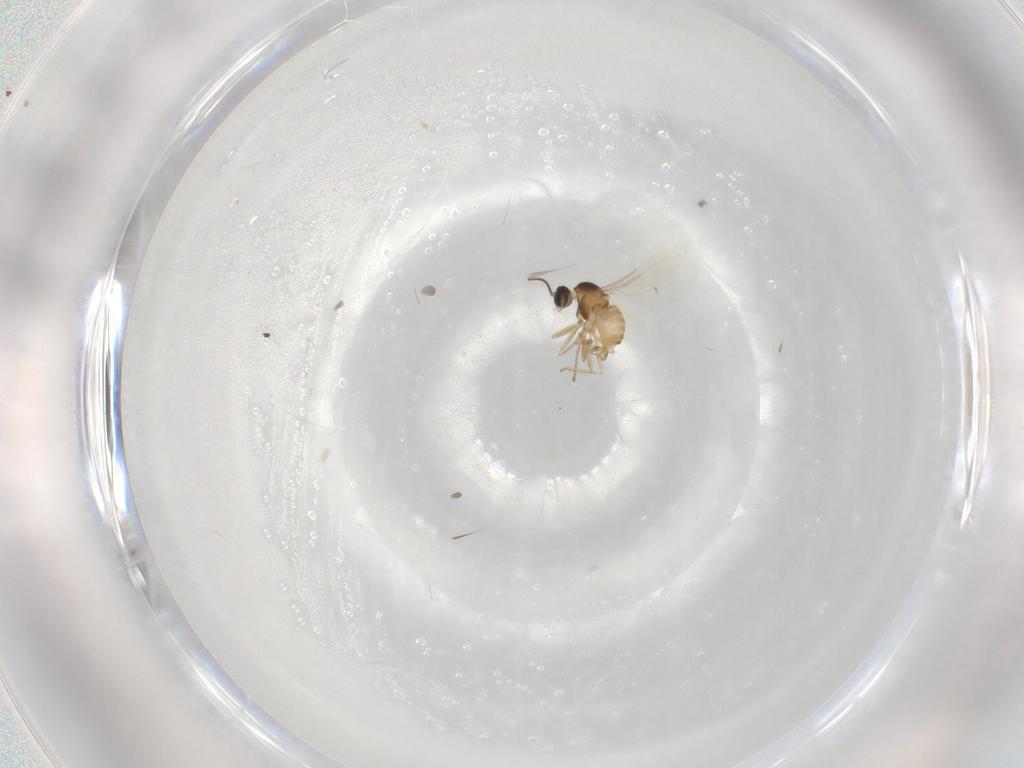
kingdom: Animalia
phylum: Arthropoda
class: Insecta
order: Diptera
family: Cecidomyiidae
